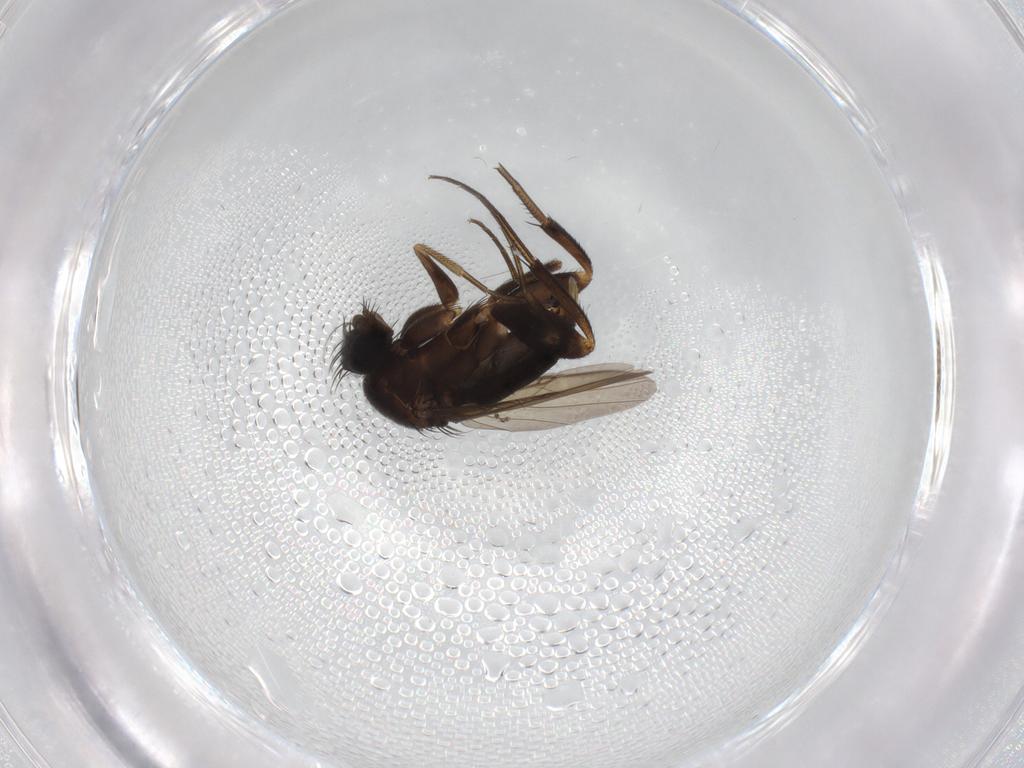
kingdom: Animalia
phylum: Arthropoda
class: Insecta
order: Diptera
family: Phoridae
